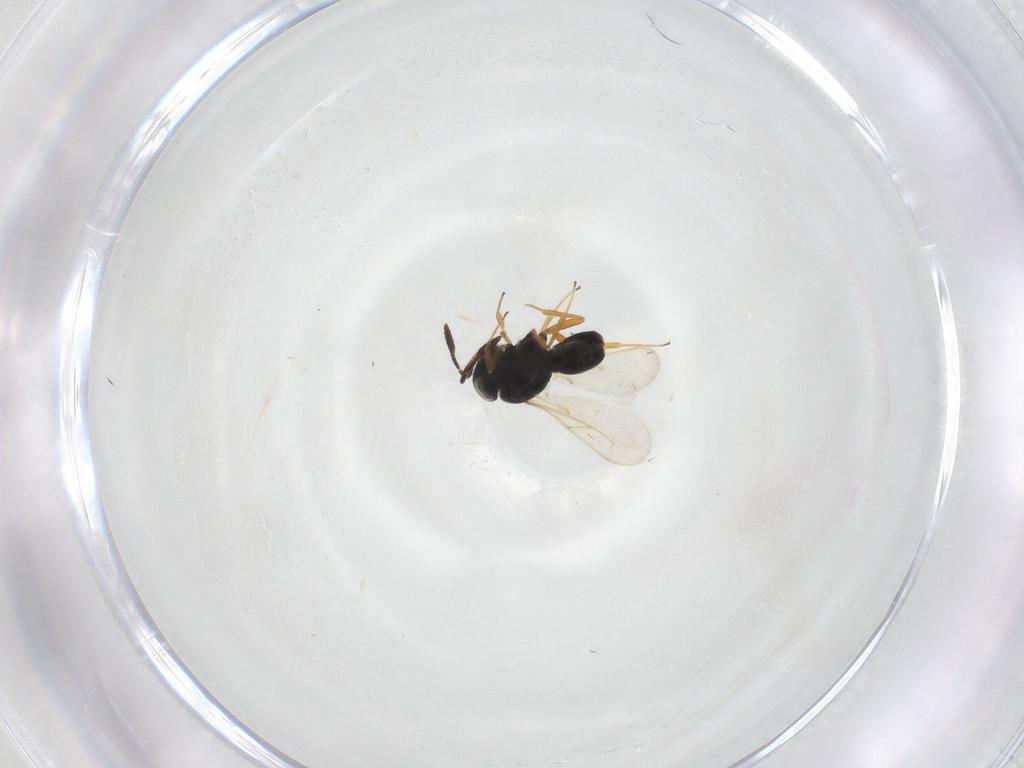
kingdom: Animalia
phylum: Arthropoda
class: Insecta
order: Hymenoptera
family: Scelionidae
